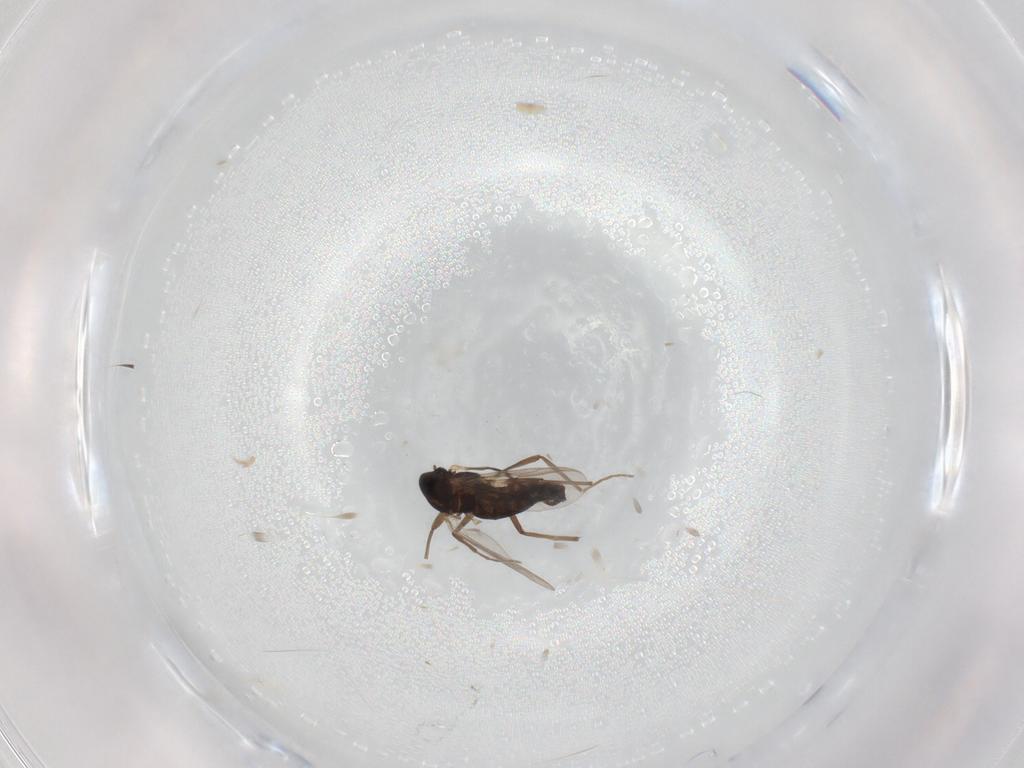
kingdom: Animalia
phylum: Arthropoda
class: Insecta
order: Diptera
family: Chironomidae
